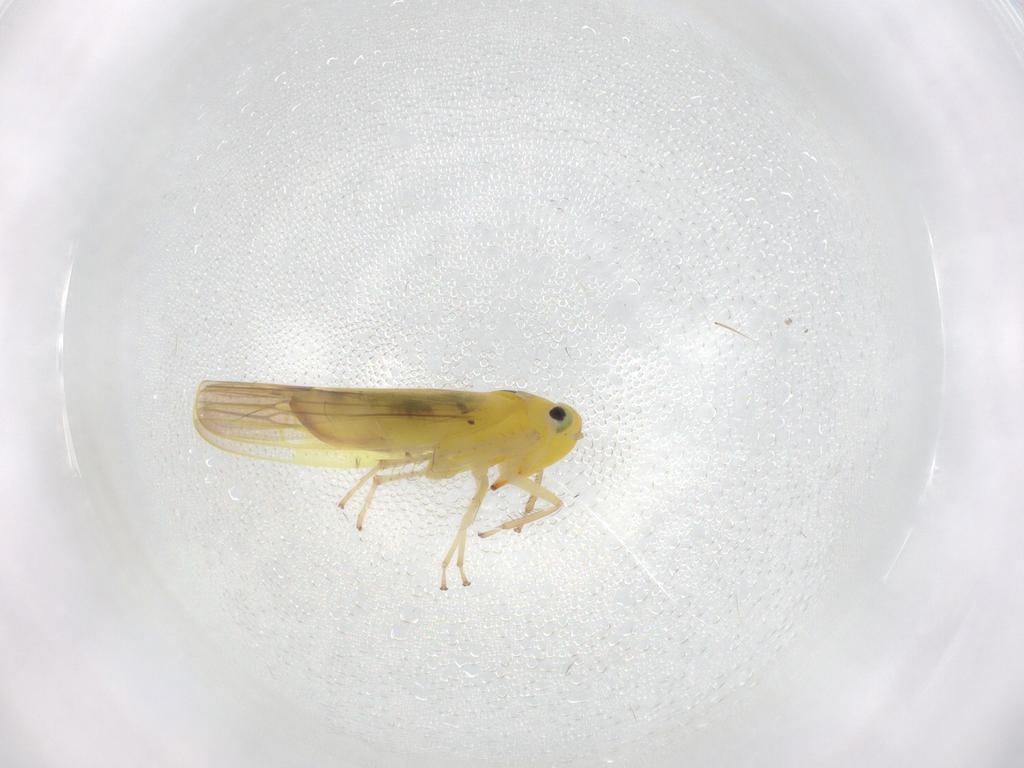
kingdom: Animalia
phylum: Arthropoda
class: Insecta
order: Hemiptera
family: Cicadellidae
